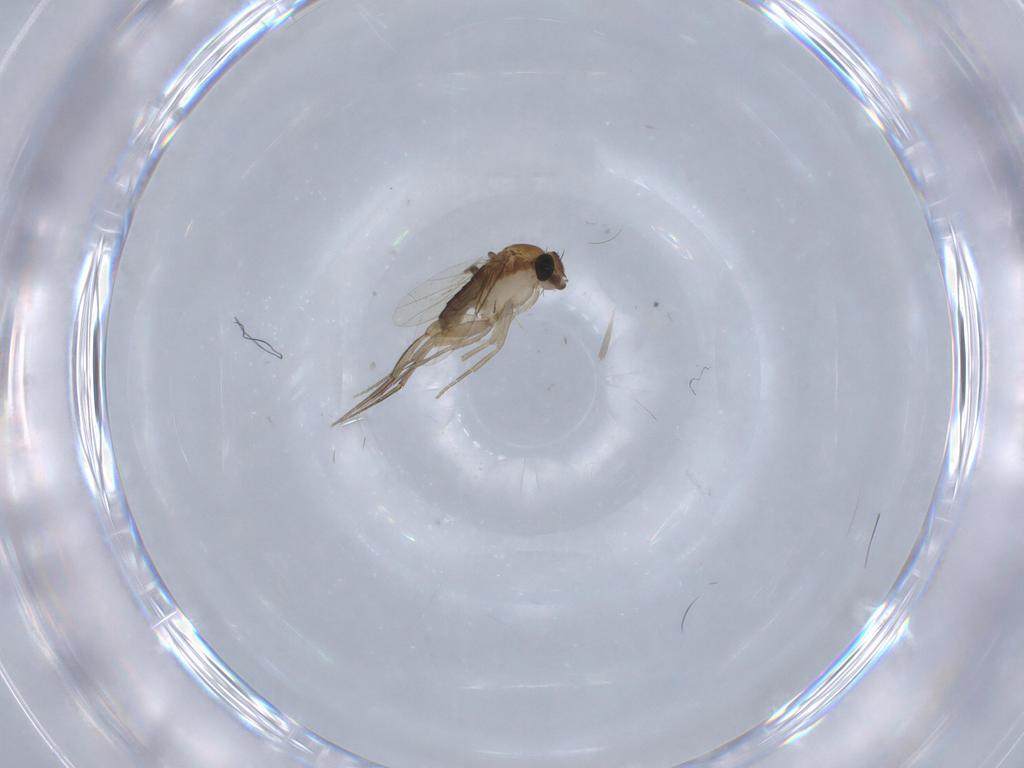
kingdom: Animalia
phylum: Arthropoda
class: Insecta
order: Diptera
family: Phoridae
